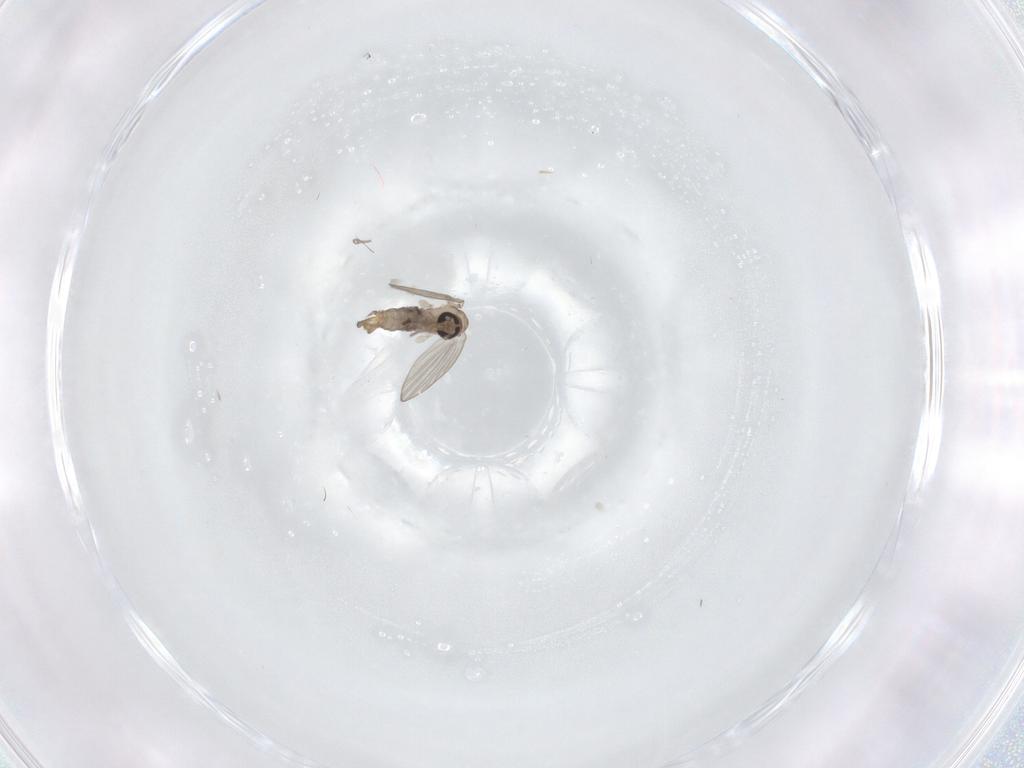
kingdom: Animalia
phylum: Arthropoda
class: Insecta
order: Diptera
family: Psychodidae
